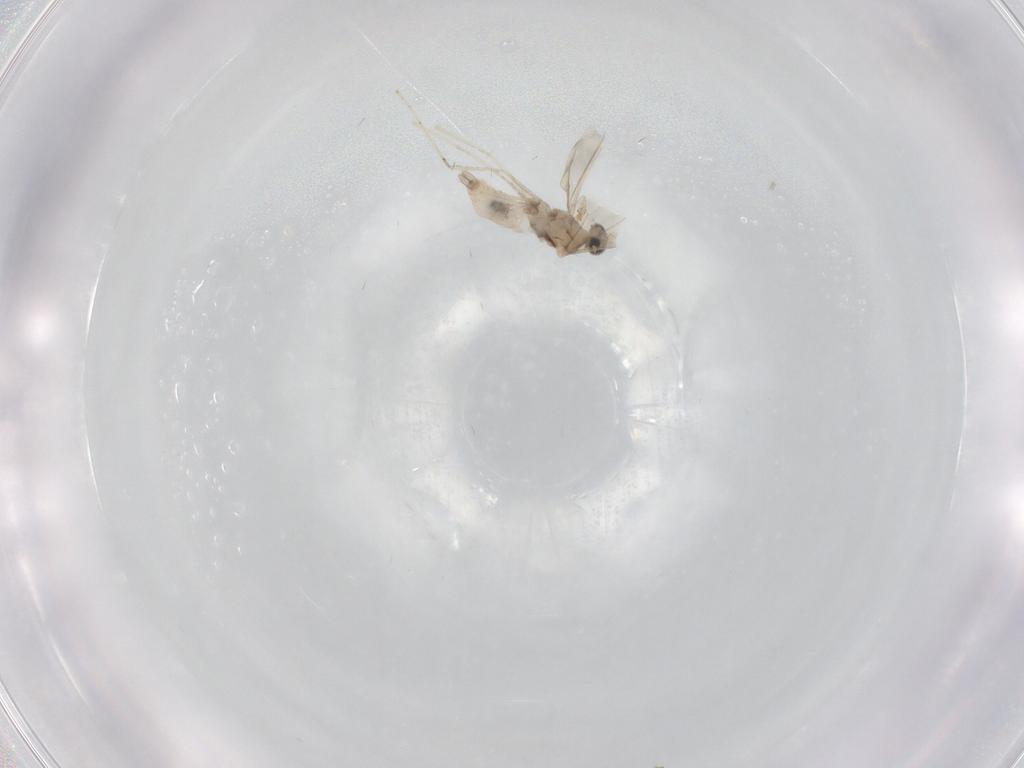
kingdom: Animalia
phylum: Arthropoda
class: Insecta
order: Diptera
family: Cecidomyiidae
